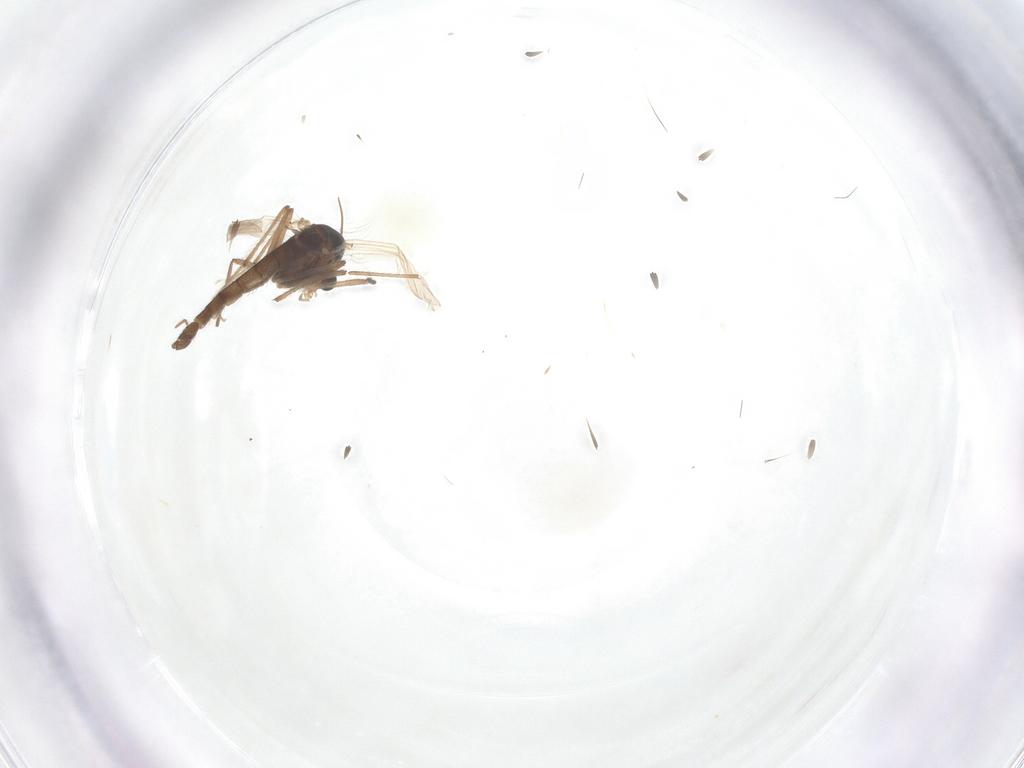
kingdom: Animalia
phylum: Arthropoda
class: Insecta
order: Diptera
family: Chironomidae
